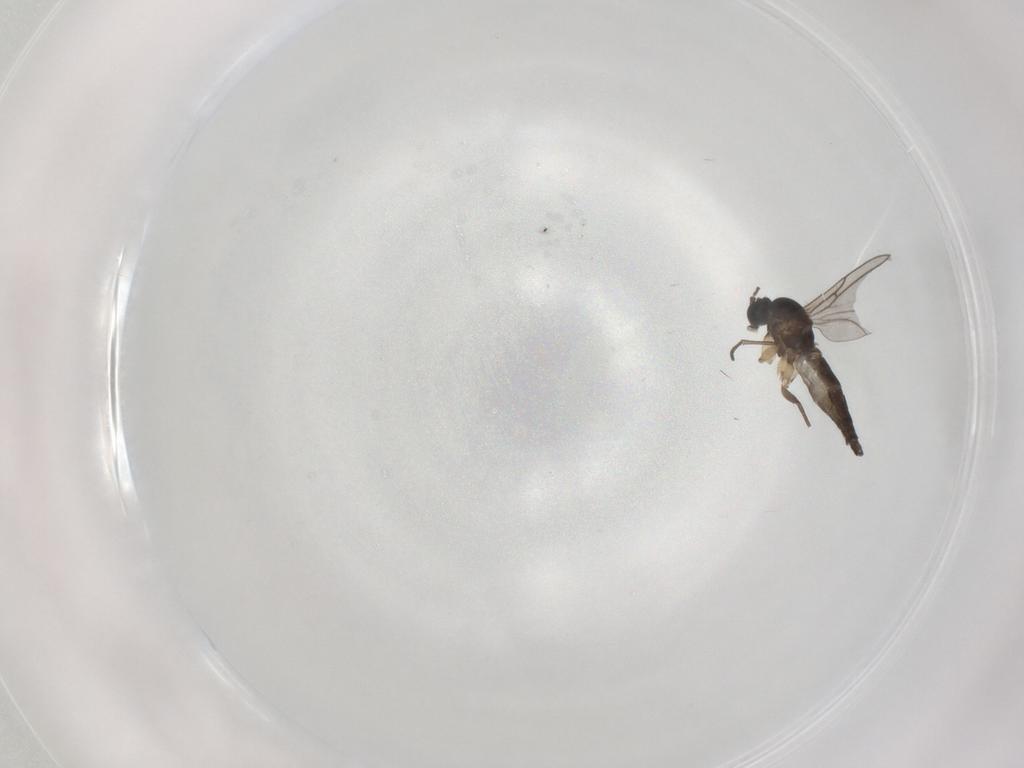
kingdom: Animalia
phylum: Arthropoda
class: Insecta
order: Diptera
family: Sciaridae
